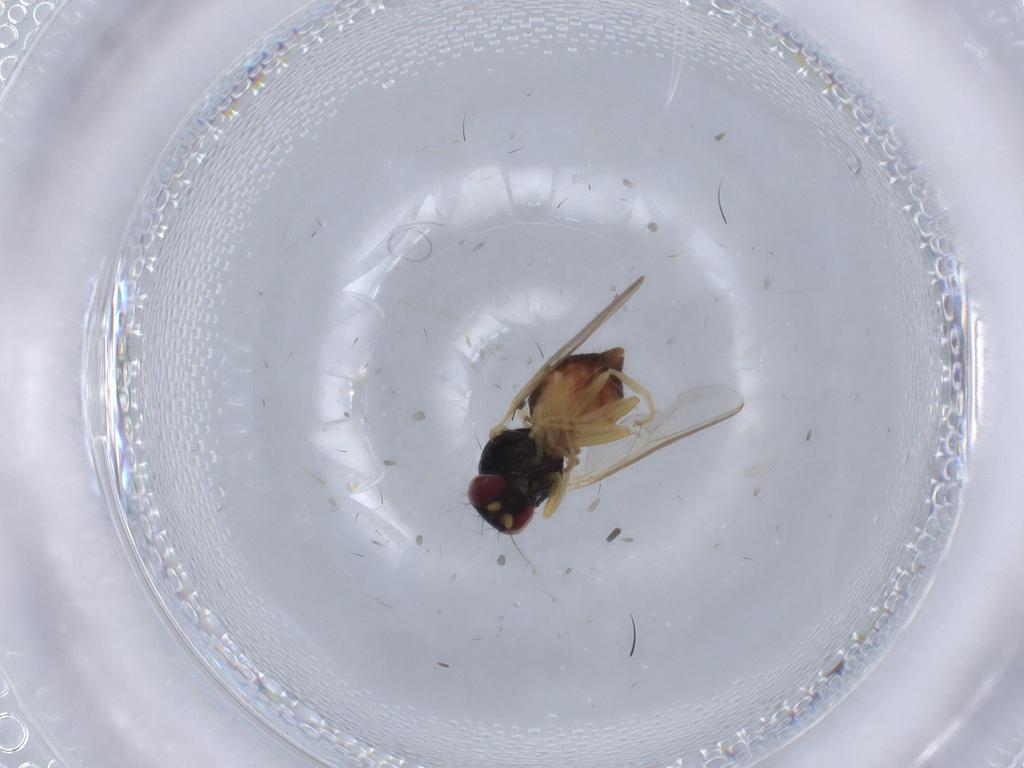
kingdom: Animalia
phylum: Arthropoda
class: Insecta
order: Diptera
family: Chloropidae
